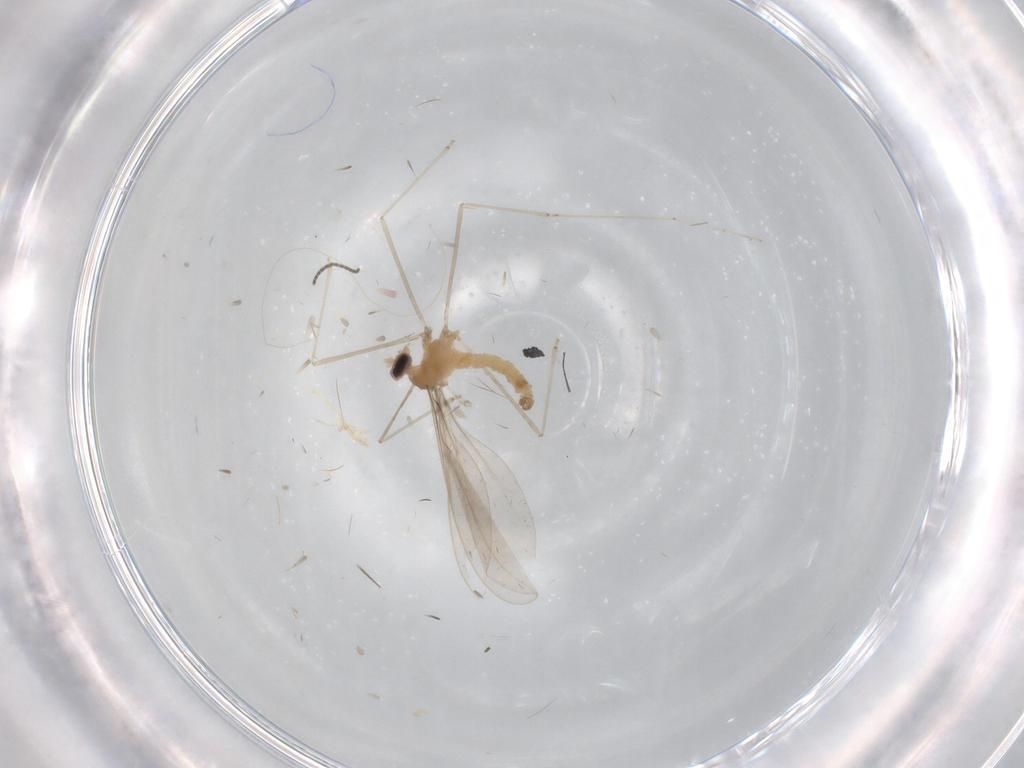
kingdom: Animalia
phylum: Arthropoda
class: Insecta
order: Diptera
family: Cecidomyiidae
